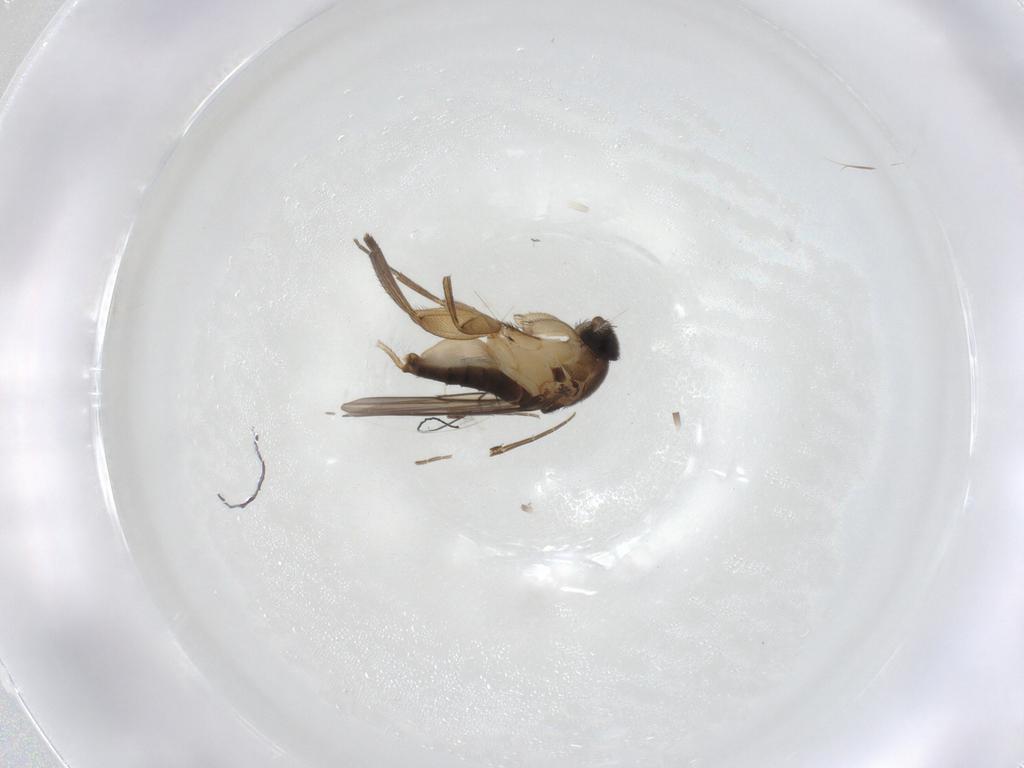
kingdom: Animalia
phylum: Arthropoda
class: Insecta
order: Diptera
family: Phoridae
